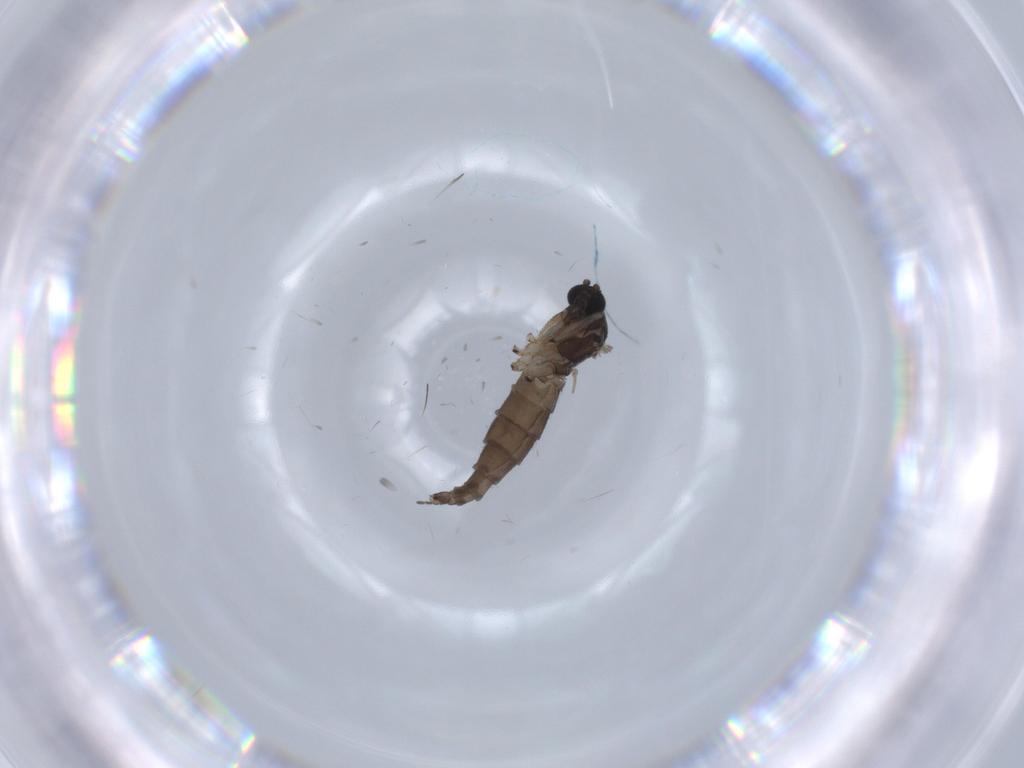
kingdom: Animalia
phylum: Arthropoda
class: Insecta
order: Diptera
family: Sciaridae
